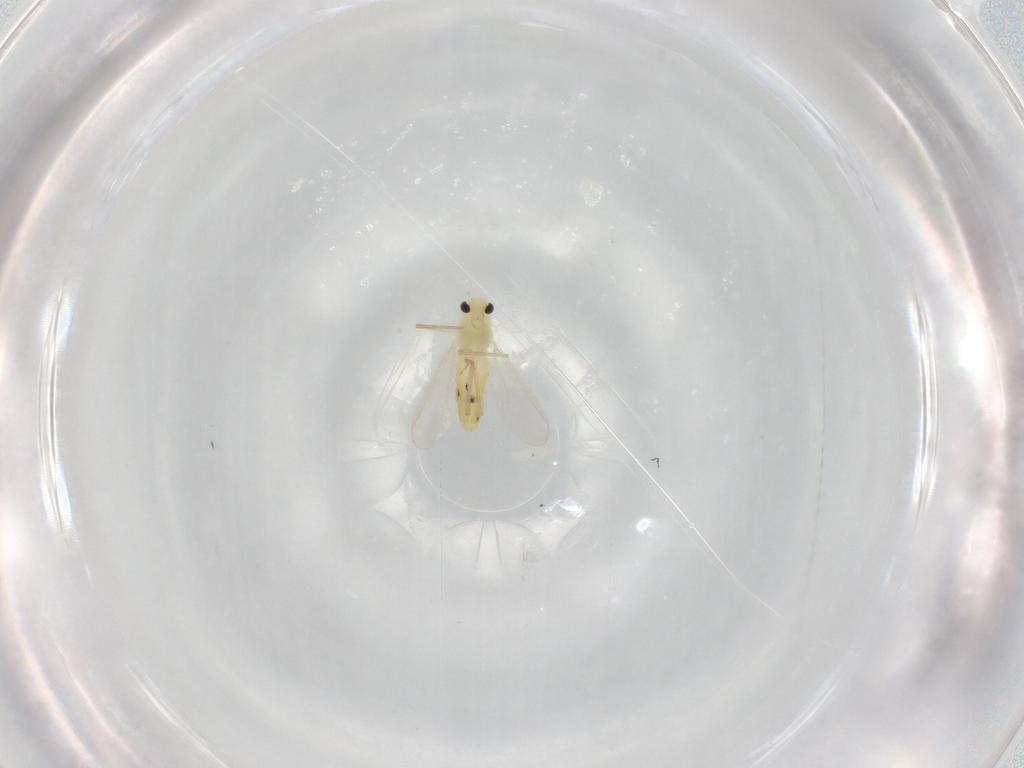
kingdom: Animalia
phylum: Arthropoda
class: Insecta
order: Diptera
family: Chironomidae
